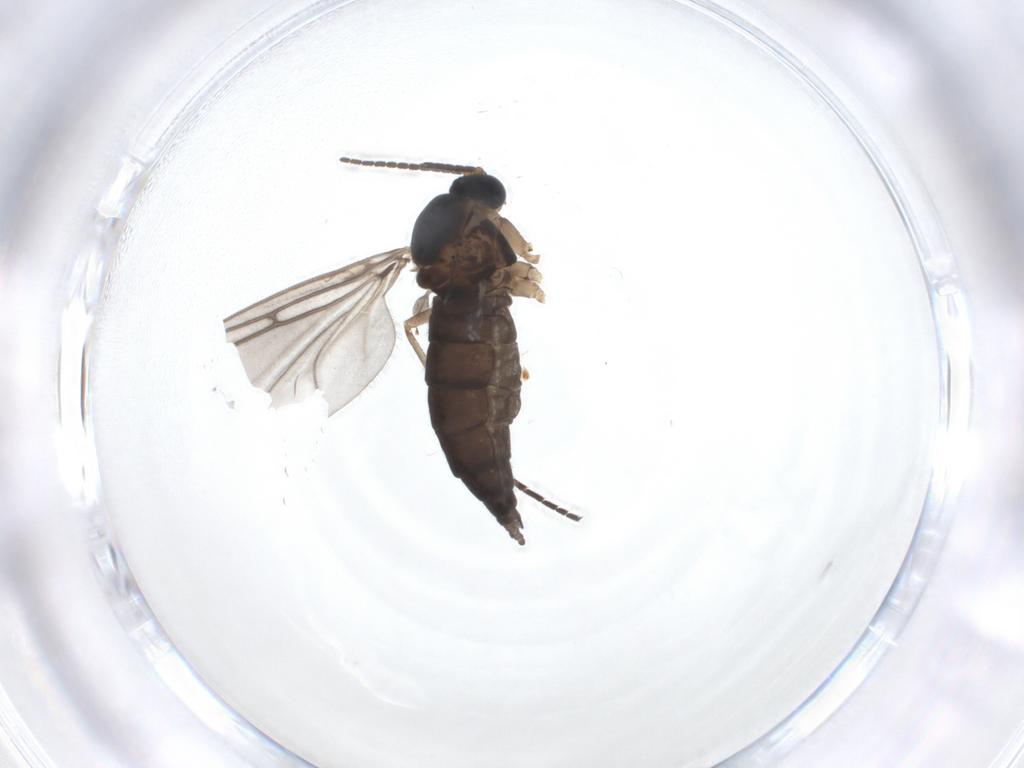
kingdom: Animalia
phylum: Arthropoda
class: Insecta
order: Diptera
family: Sciaridae
